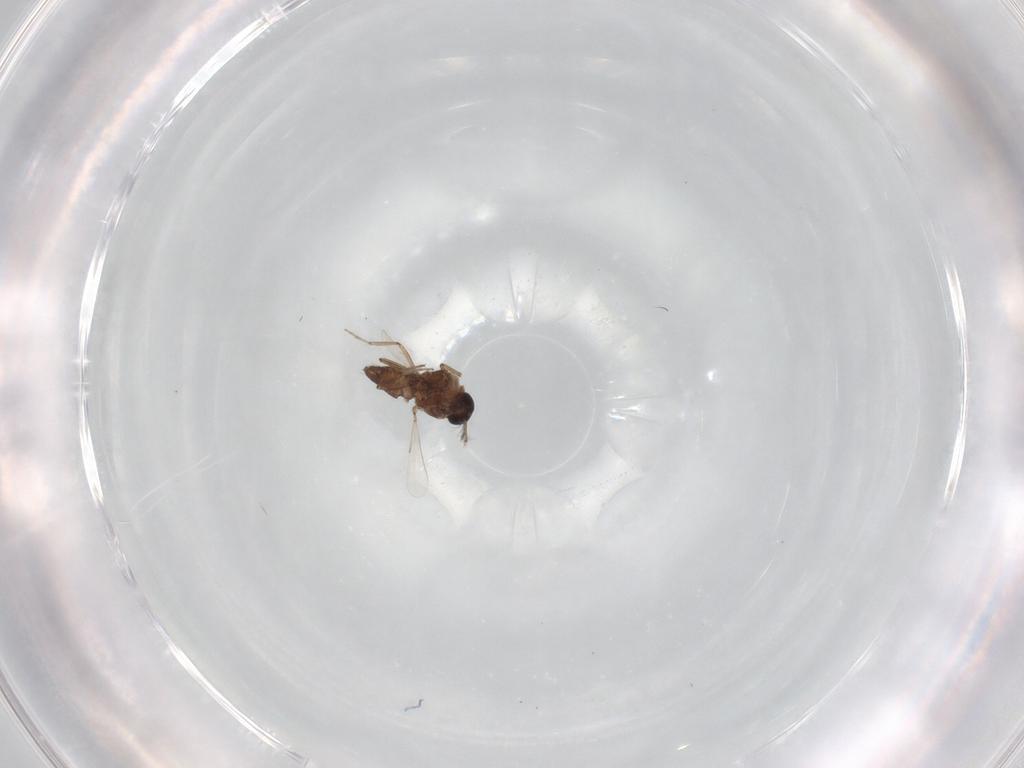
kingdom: Animalia
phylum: Arthropoda
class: Insecta
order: Diptera
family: Ceratopogonidae
